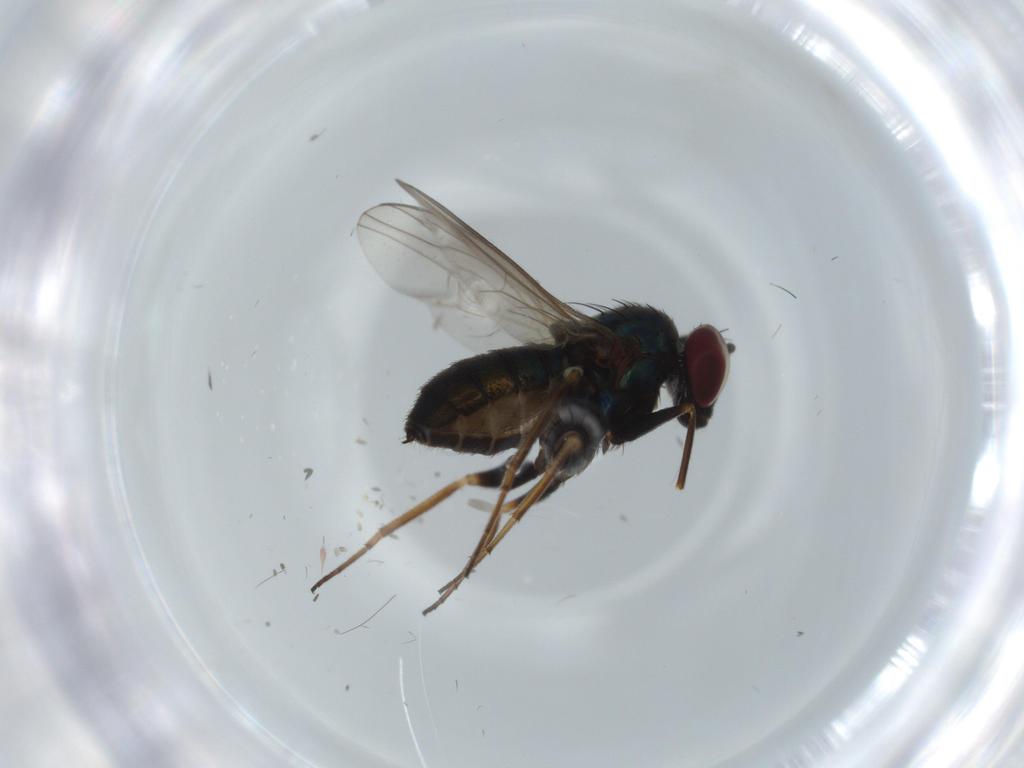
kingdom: Animalia
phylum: Arthropoda
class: Insecta
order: Diptera
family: Dolichopodidae
